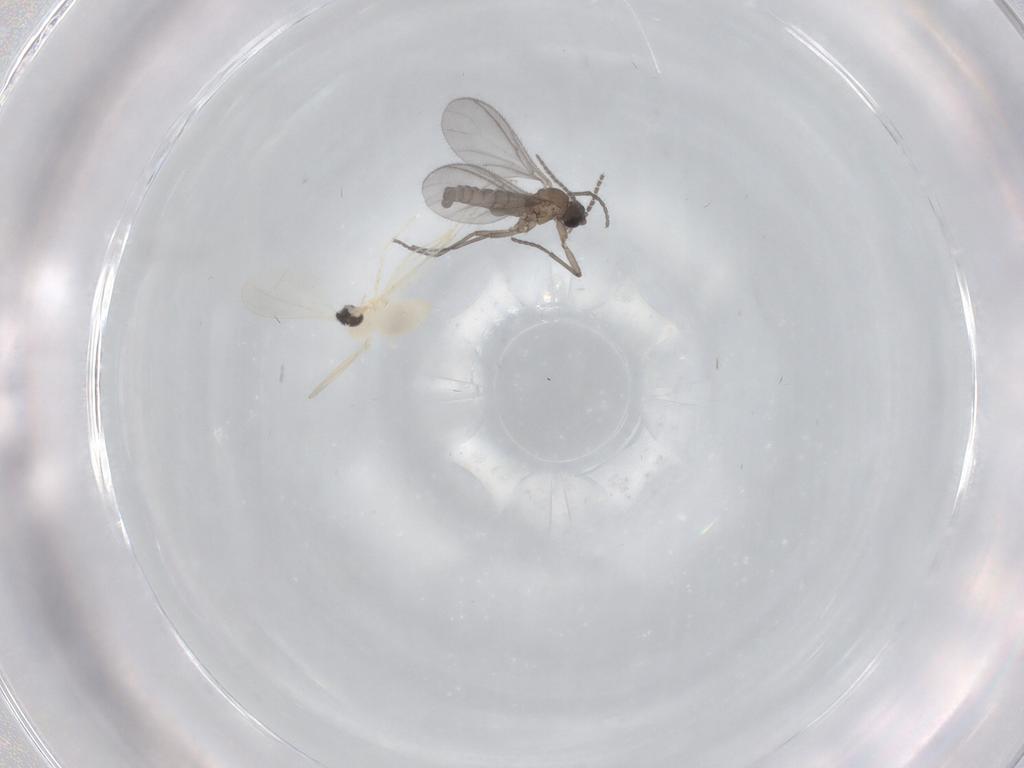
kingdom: Animalia
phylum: Arthropoda
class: Insecta
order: Diptera
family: Sciaridae
